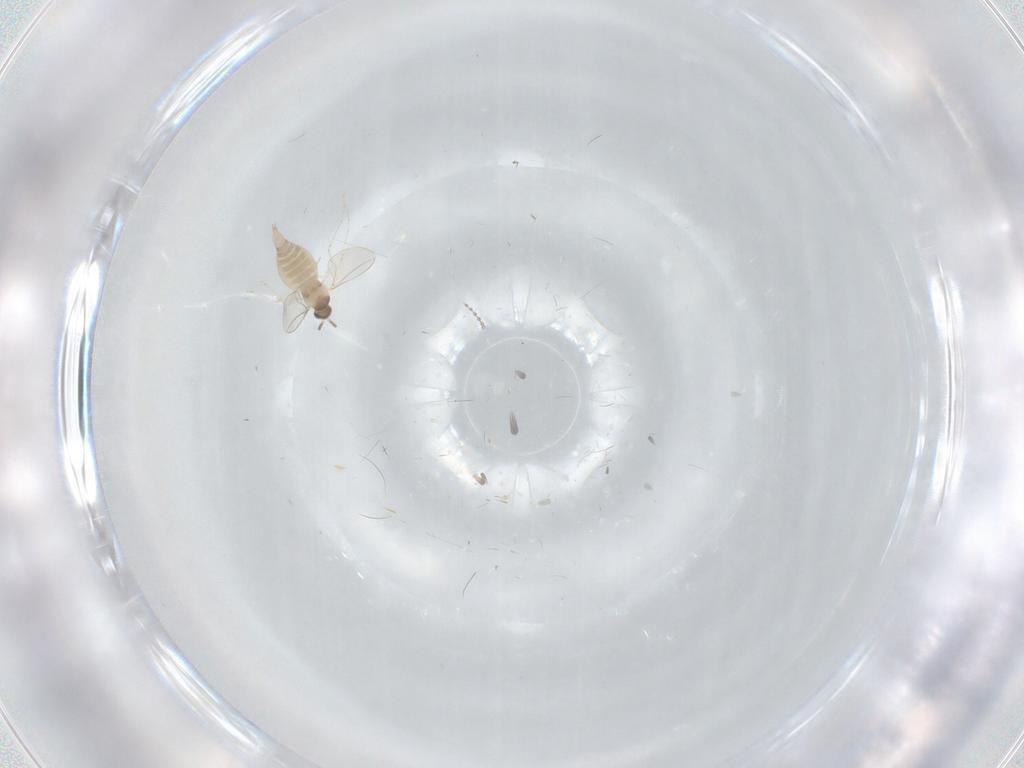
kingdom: Animalia
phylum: Arthropoda
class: Insecta
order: Diptera
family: Cecidomyiidae
